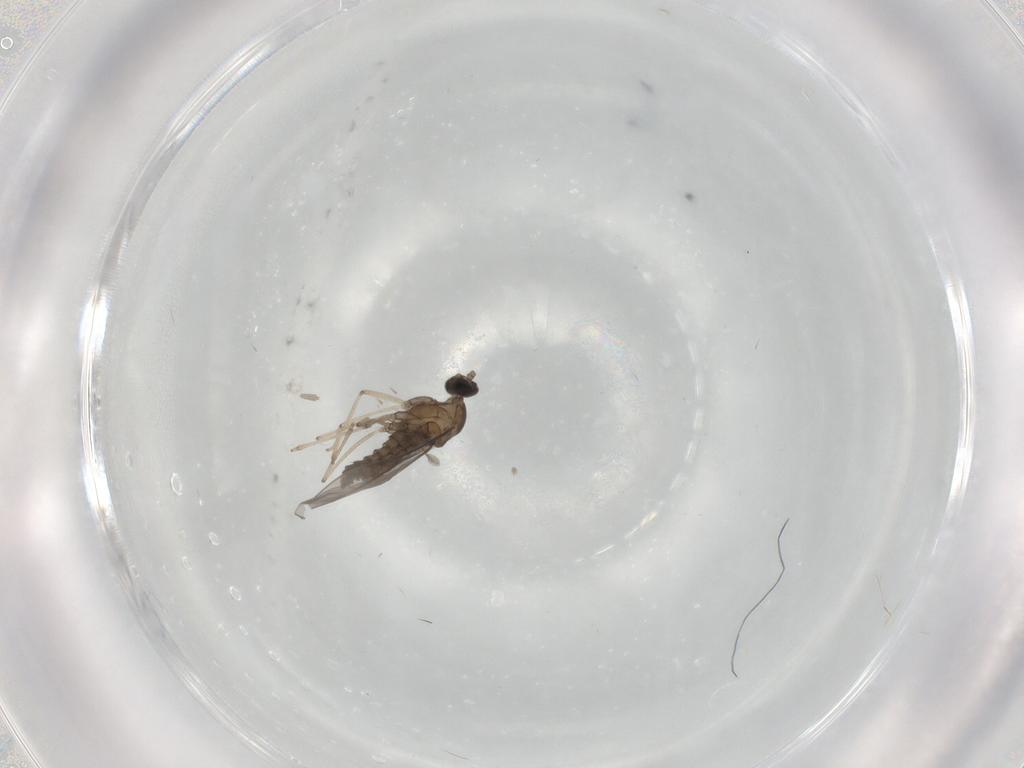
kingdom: Animalia
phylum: Arthropoda
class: Insecta
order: Diptera
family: Cecidomyiidae
